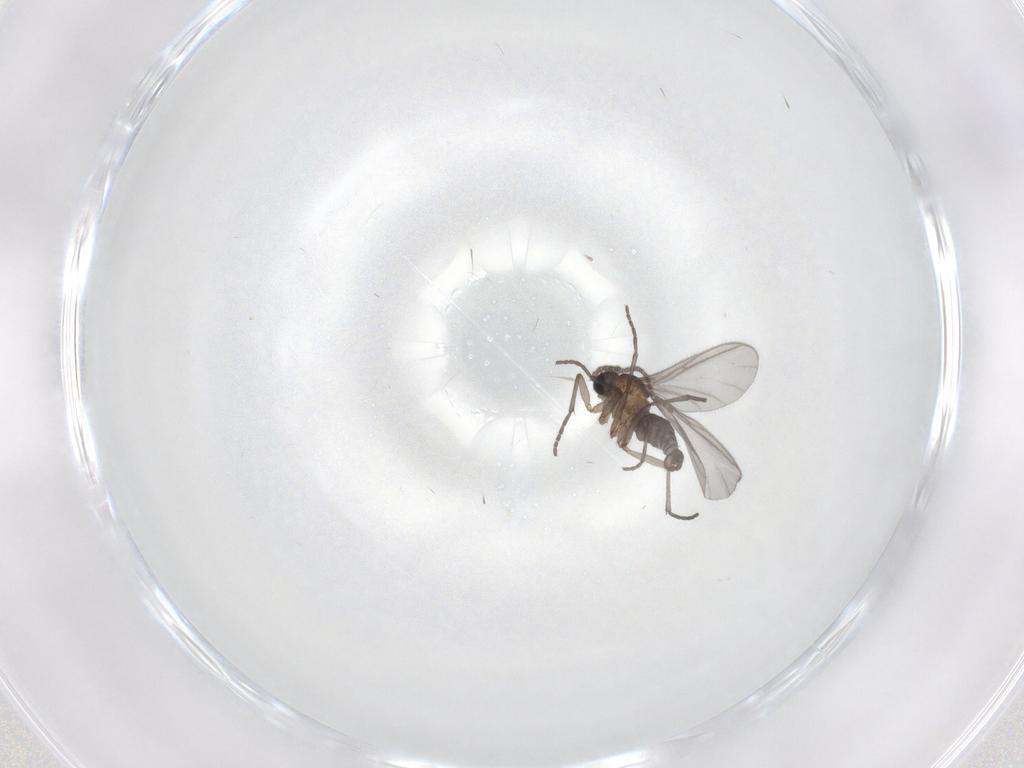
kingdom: Animalia
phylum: Arthropoda
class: Insecta
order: Diptera
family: Sciaridae
